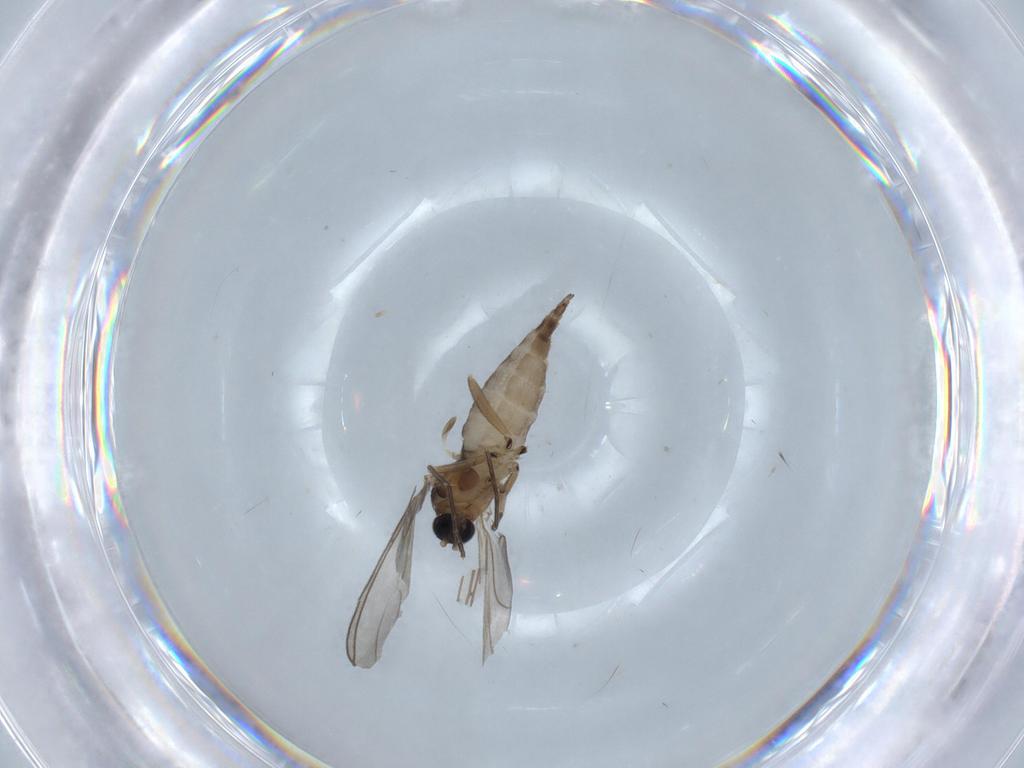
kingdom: Animalia
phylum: Arthropoda
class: Insecta
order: Diptera
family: Sciaridae
